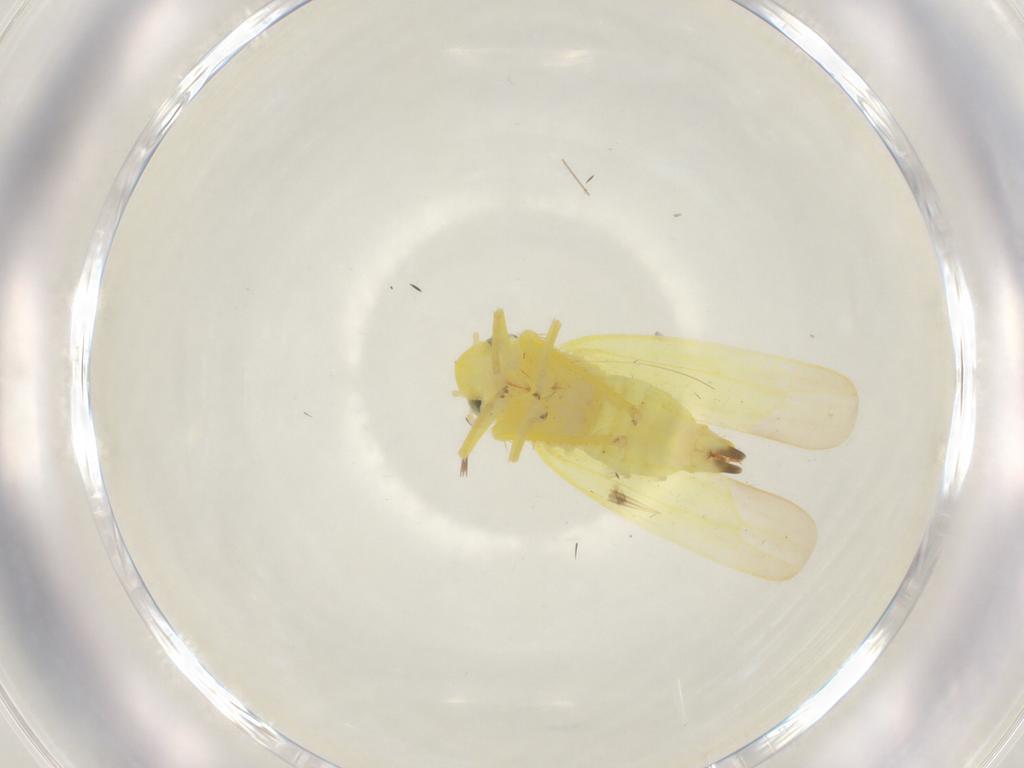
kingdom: Animalia
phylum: Arthropoda
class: Insecta
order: Hemiptera
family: Cicadellidae
